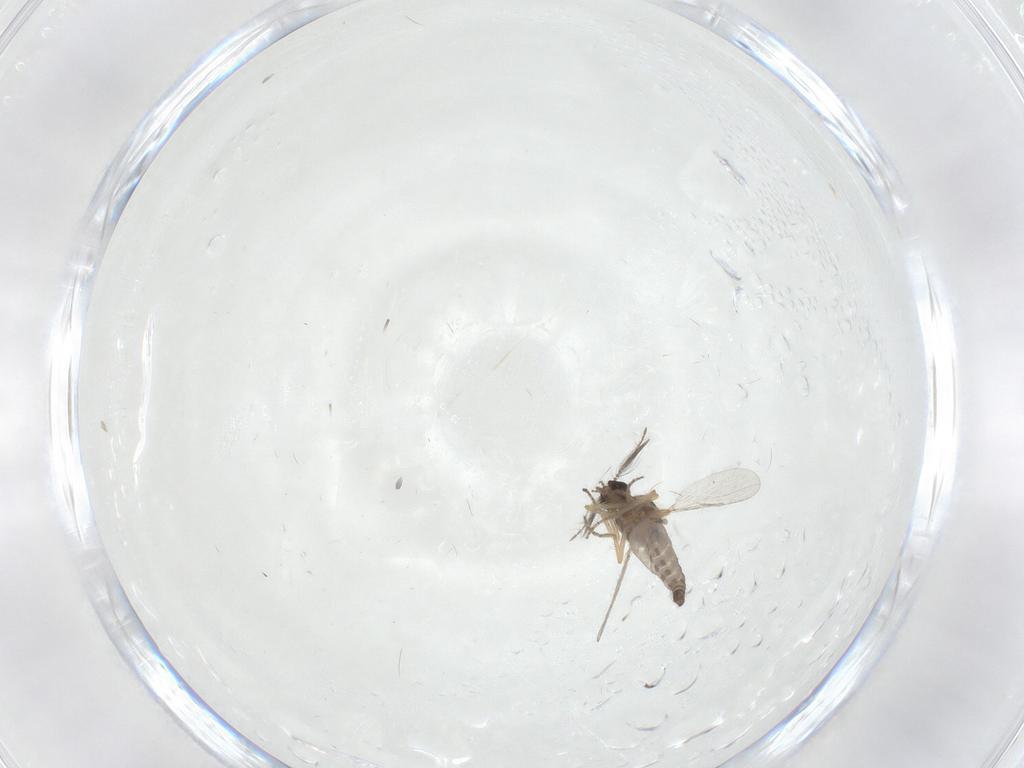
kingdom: Animalia
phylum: Arthropoda
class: Insecta
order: Diptera
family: Ceratopogonidae
